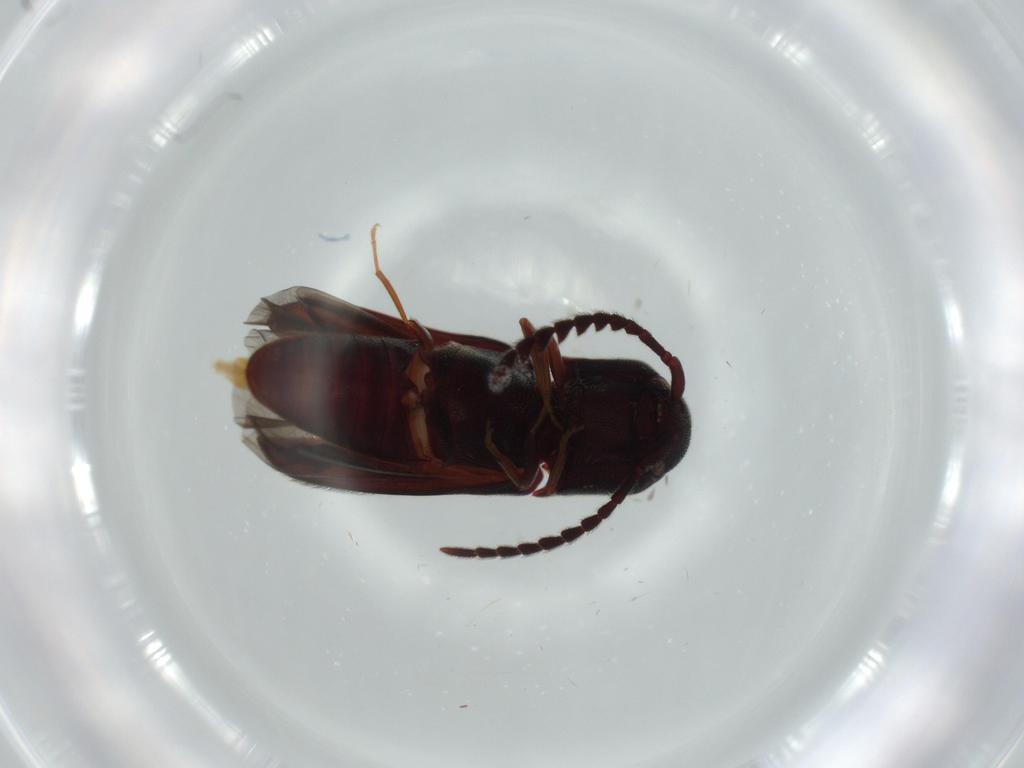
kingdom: Animalia
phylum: Arthropoda
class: Insecta
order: Coleoptera
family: Eucnemidae
